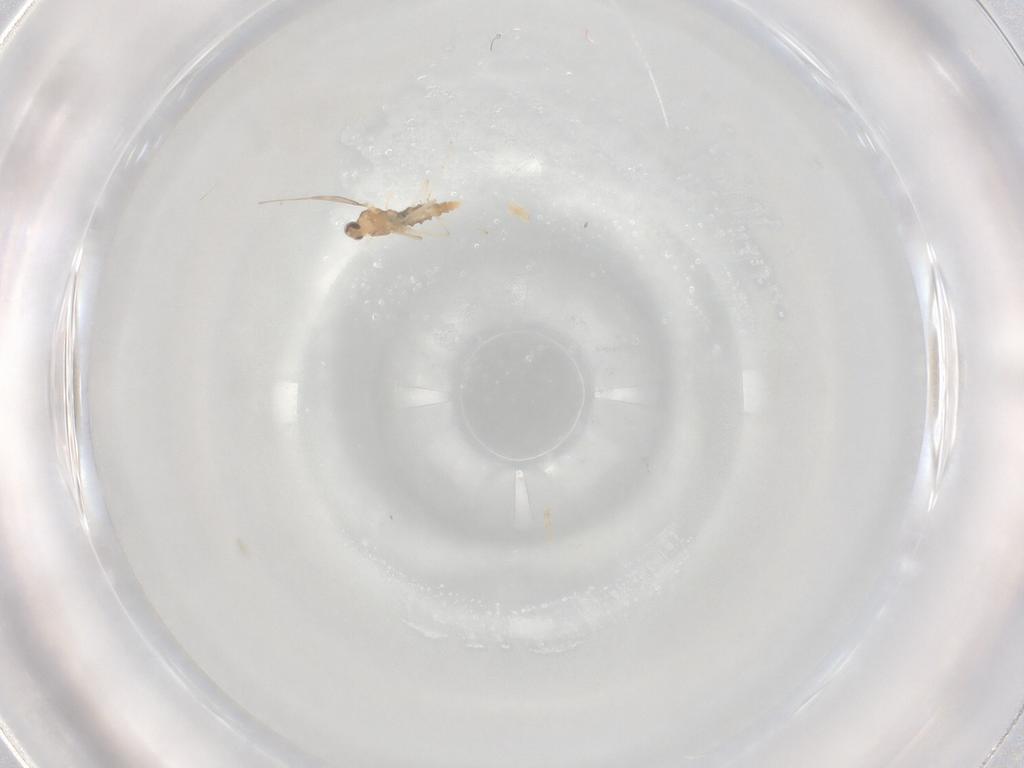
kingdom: Animalia
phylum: Arthropoda
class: Insecta
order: Diptera
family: Cecidomyiidae
